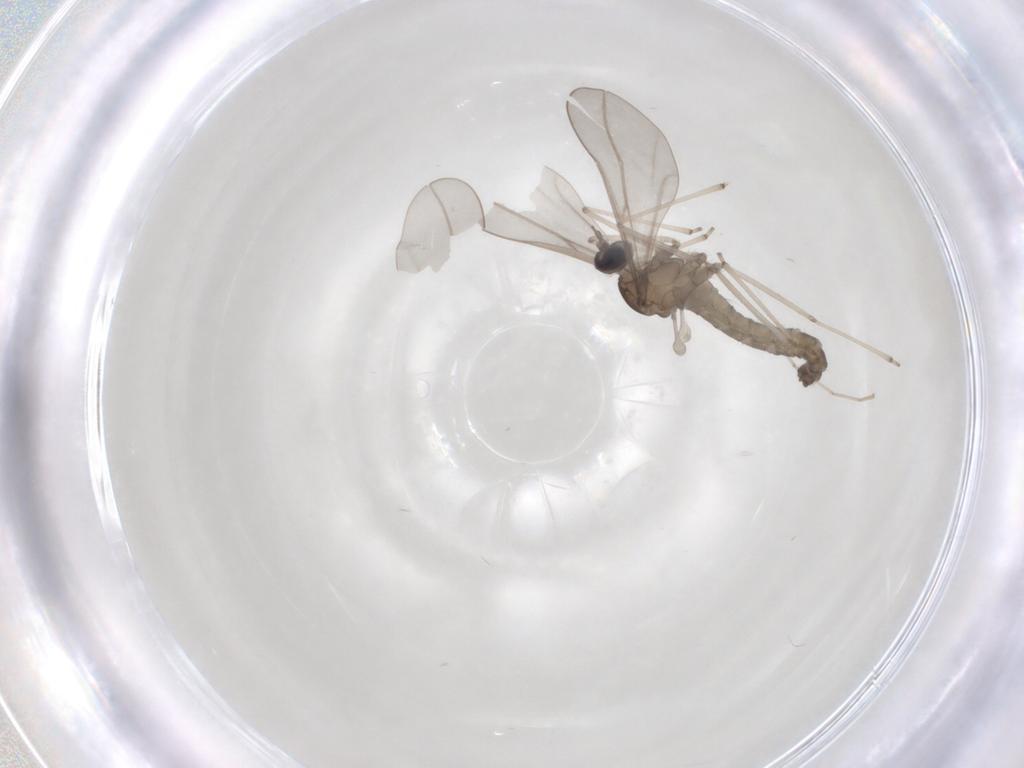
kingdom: Animalia
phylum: Arthropoda
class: Insecta
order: Diptera
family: Cecidomyiidae
